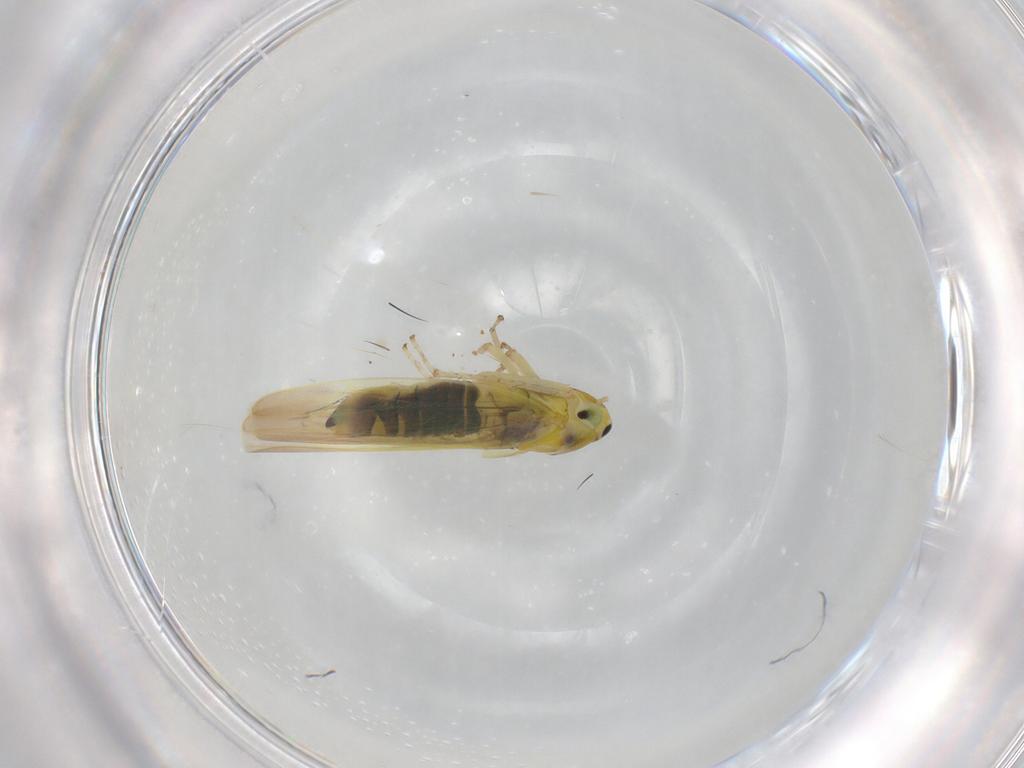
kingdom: Animalia
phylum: Arthropoda
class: Insecta
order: Hemiptera
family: Cicadellidae
